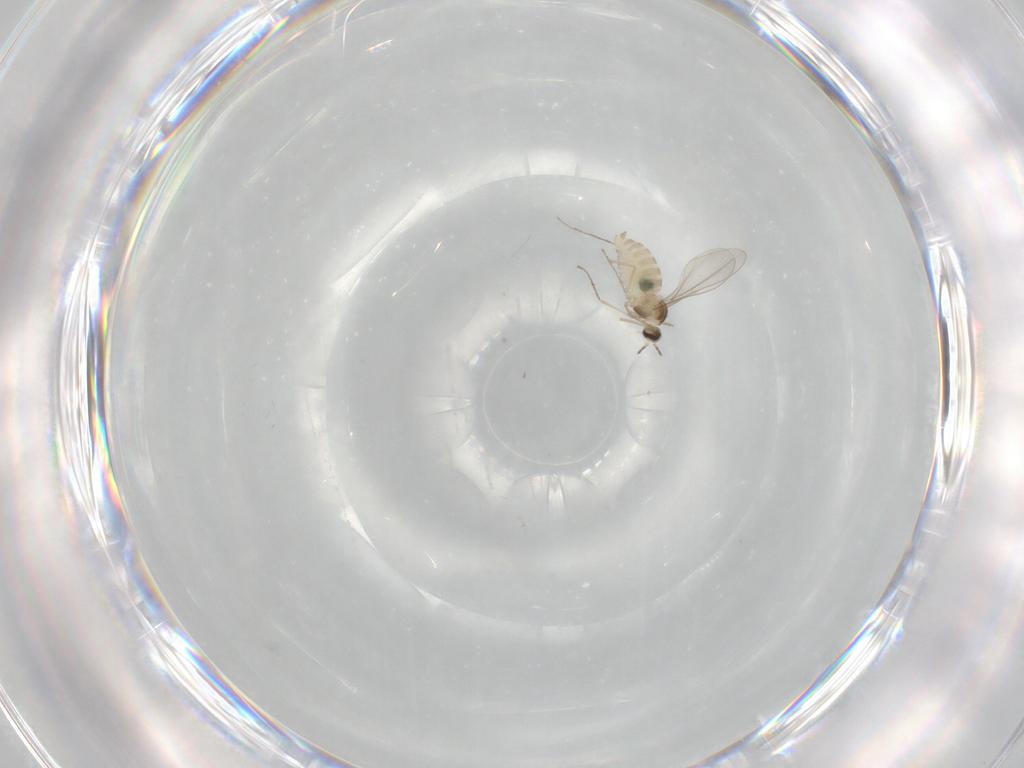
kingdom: Animalia
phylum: Arthropoda
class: Insecta
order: Diptera
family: Cecidomyiidae
